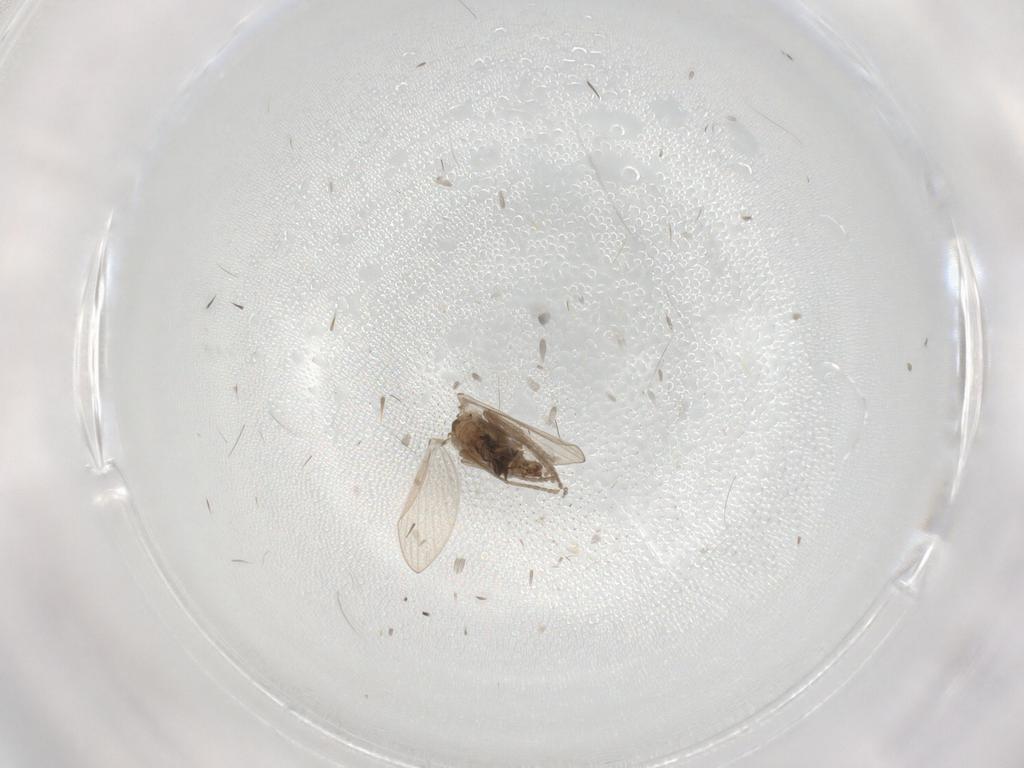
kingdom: Animalia
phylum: Arthropoda
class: Insecta
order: Diptera
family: Psychodidae
